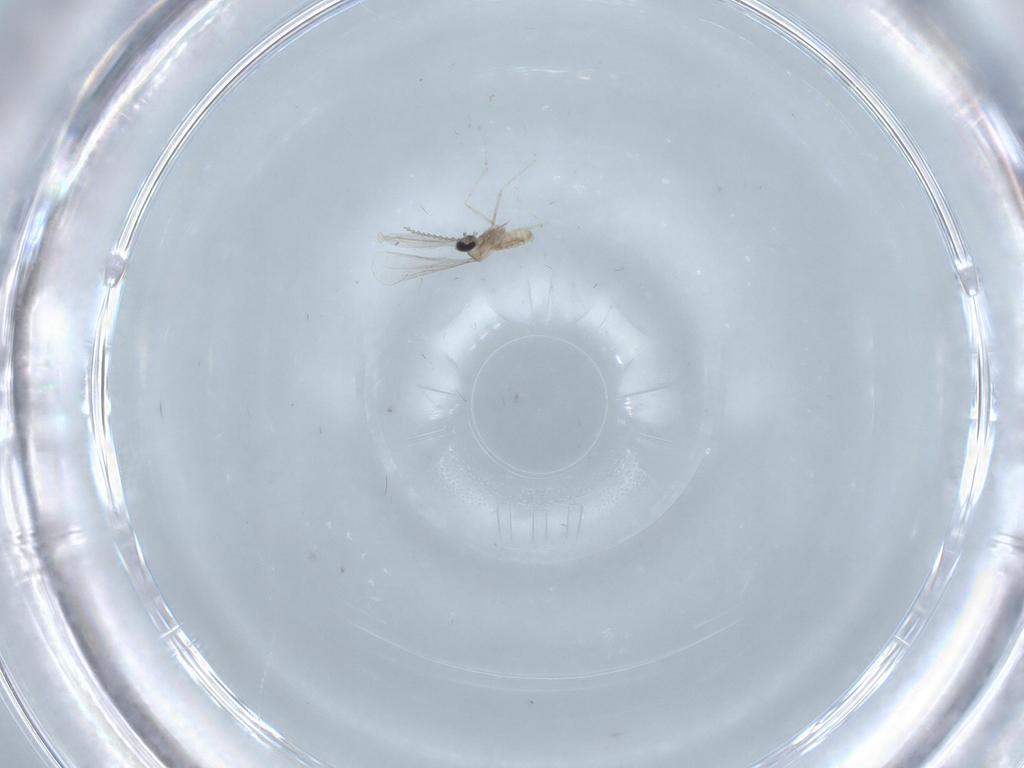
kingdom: Animalia
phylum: Arthropoda
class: Insecta
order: Diptera
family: Cecidomyiidae
